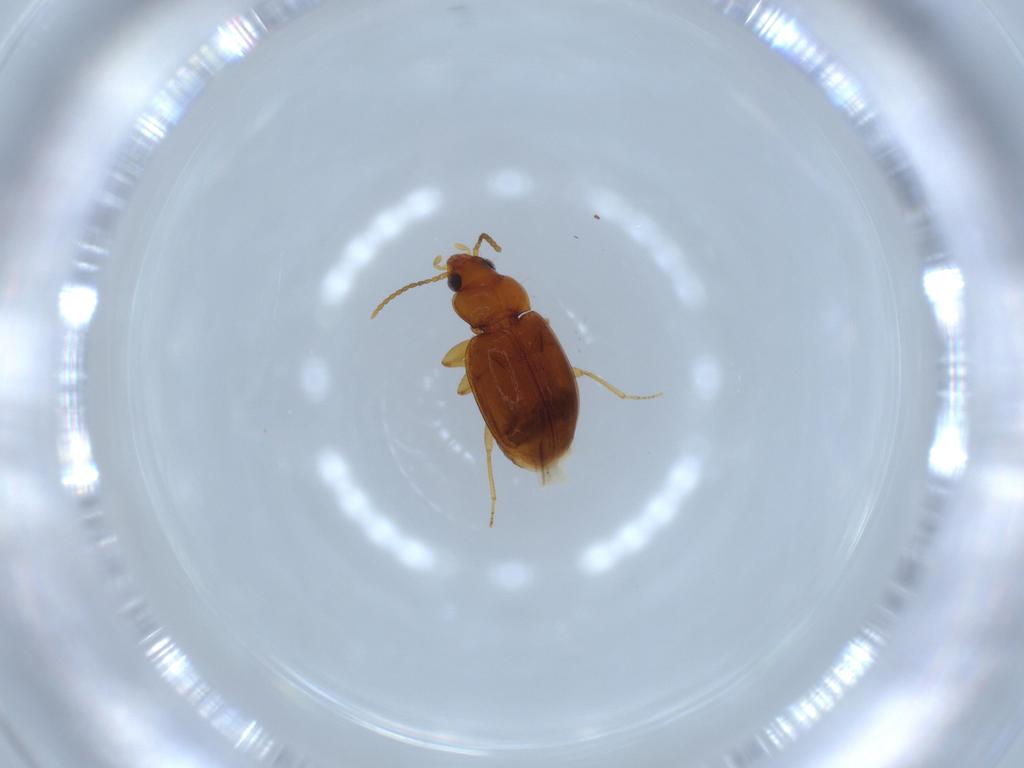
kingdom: Animalia
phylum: Arthropoda
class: Insecta
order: Coleoptera
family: Carabidae
